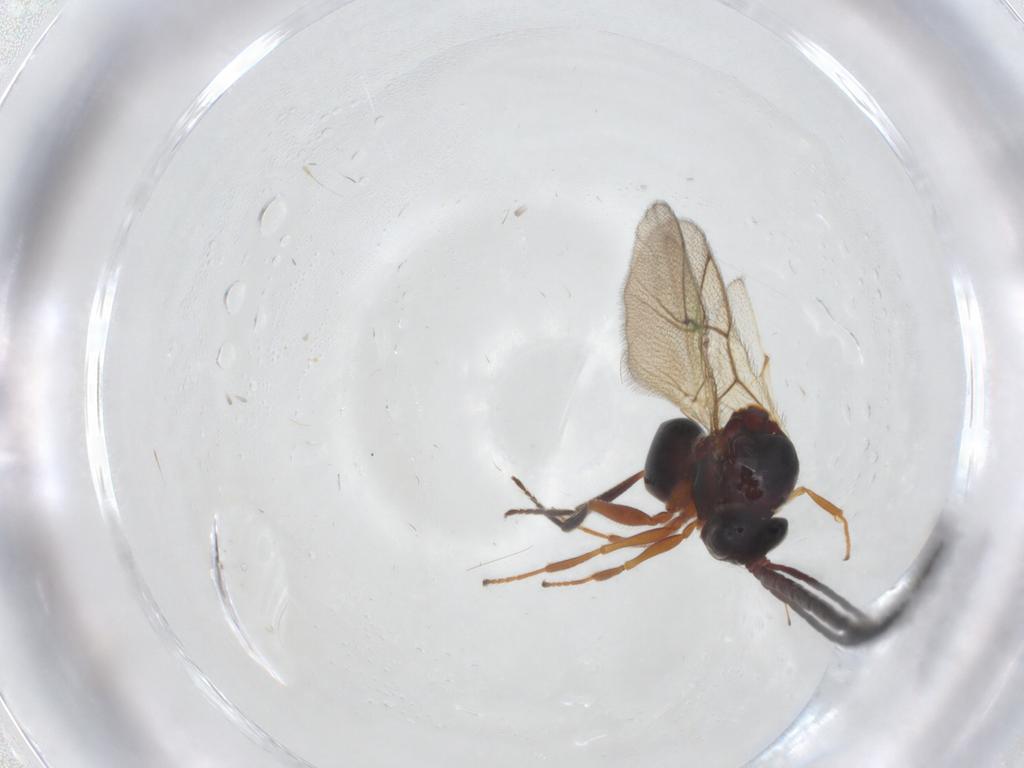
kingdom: Animalia
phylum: Arthropoda
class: Insecta
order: Hymenoptera
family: Figitidae
